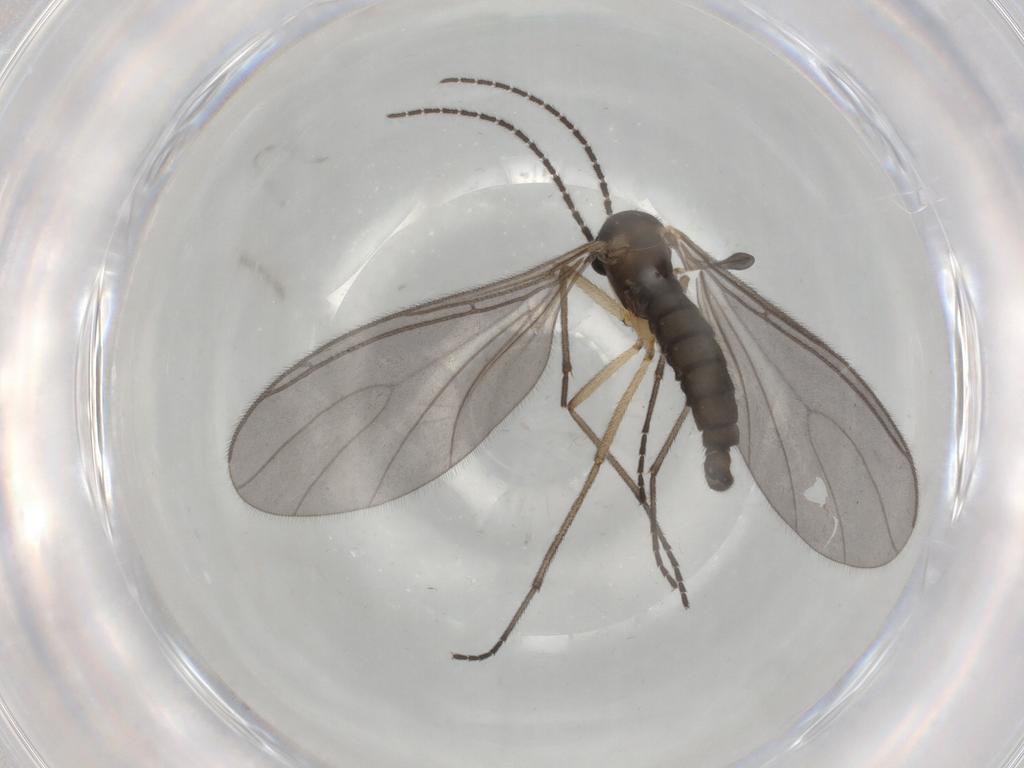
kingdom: Animalia
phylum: Arthropoda
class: Insecta
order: Diptera
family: Sciaridae
